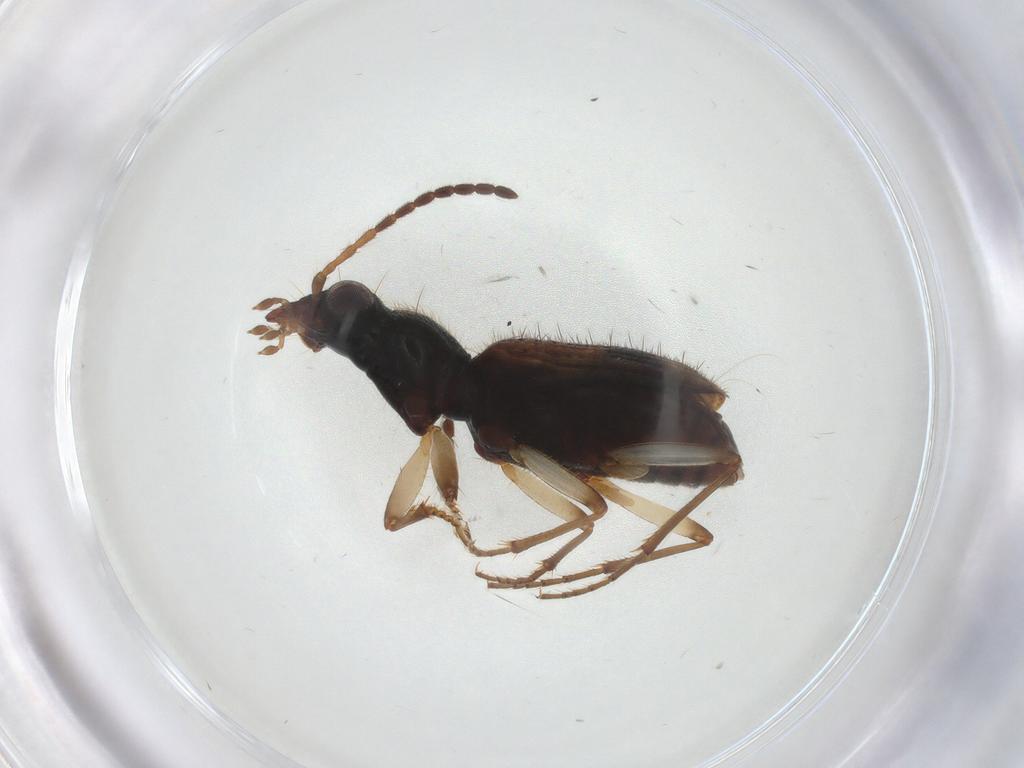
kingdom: Animalia
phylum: Arthropoda
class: Insecta
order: Coleoptera
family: Carabidae
